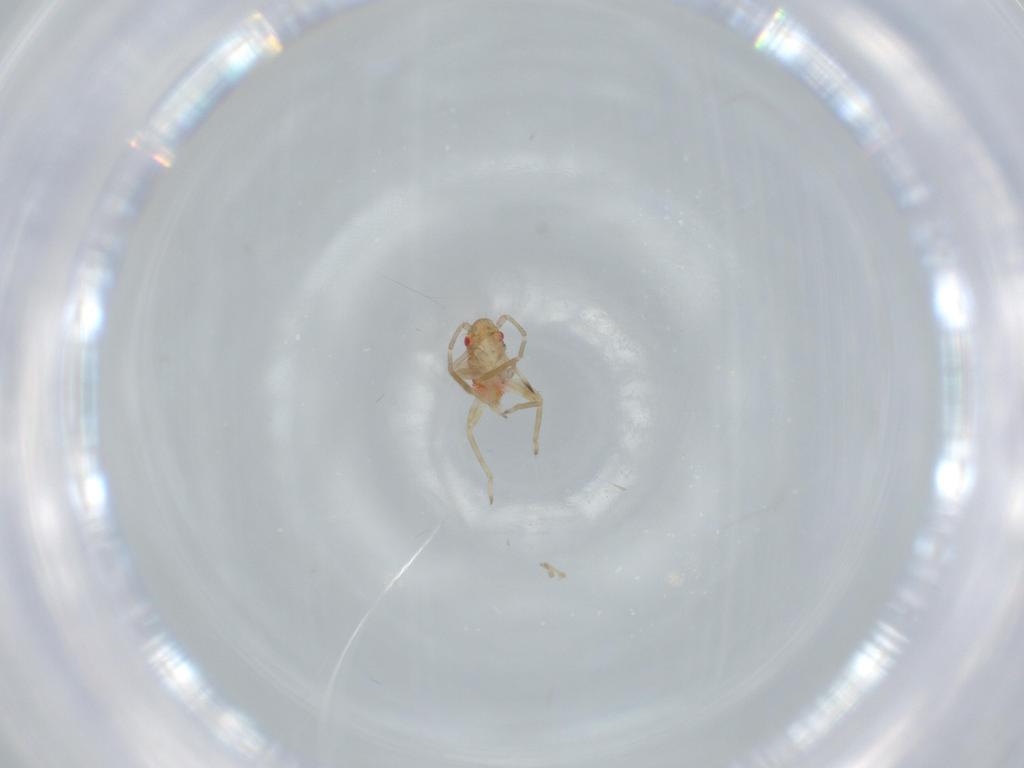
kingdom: Animalia
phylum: Arthropoda
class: Insecta
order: Hemiptera
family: Miridae
